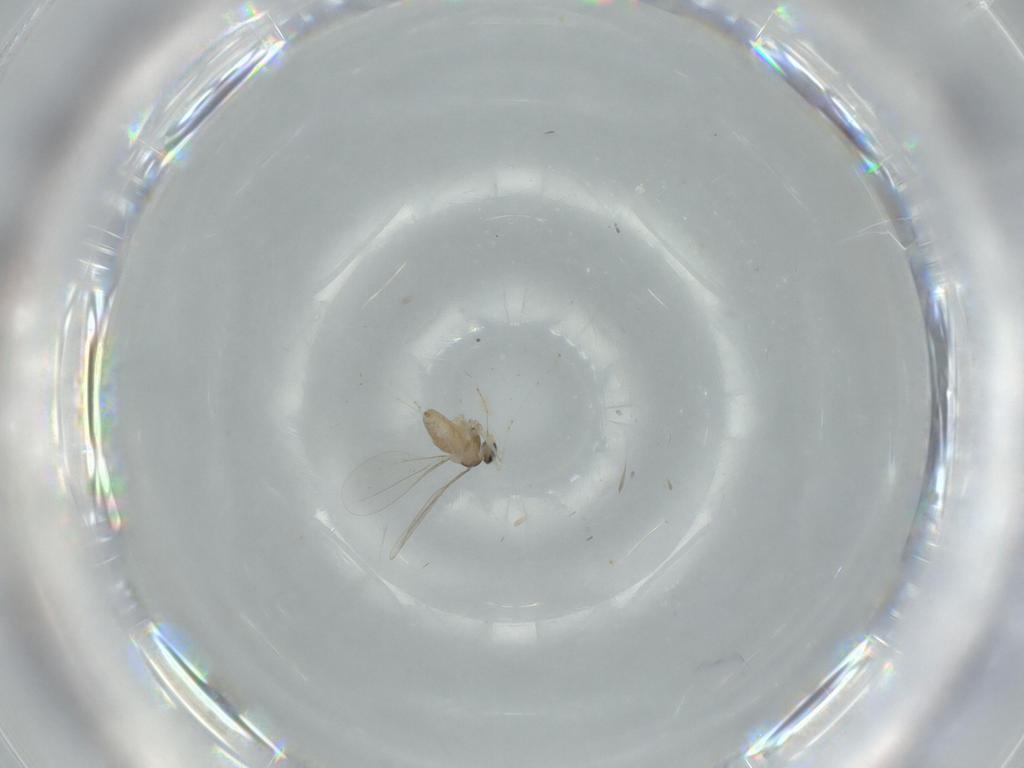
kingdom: Animalia
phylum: Arthropoda
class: Insecta
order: Diptera
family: Cecidomyiidae
